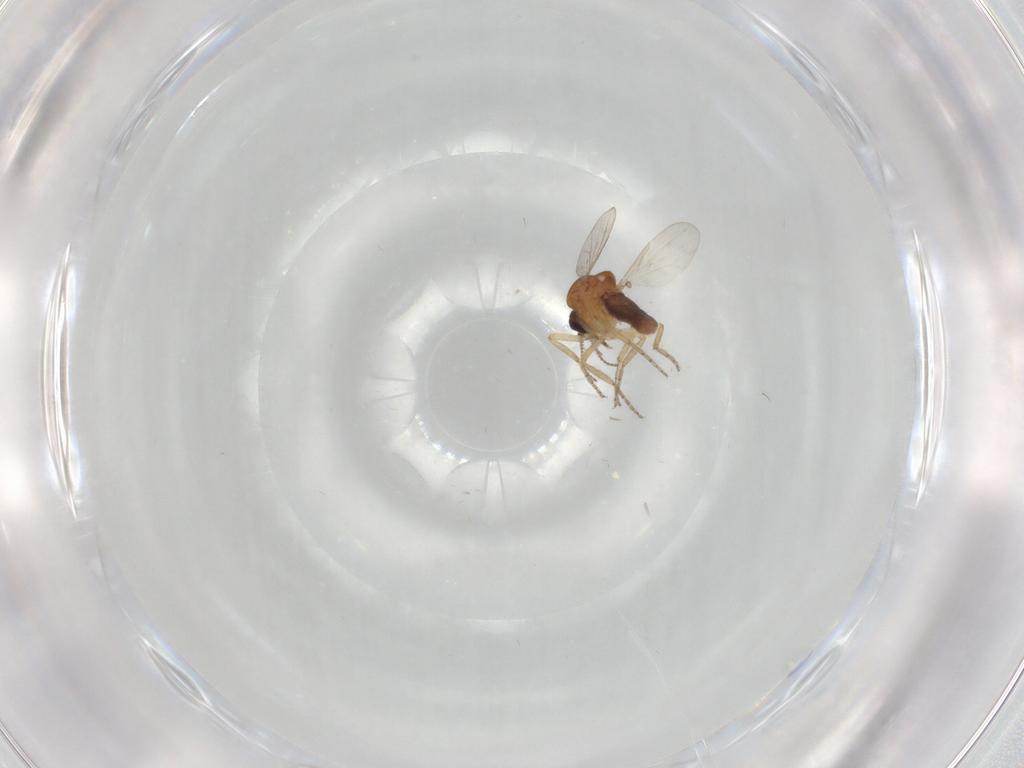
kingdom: Animalia
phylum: Arthropoda
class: Insecta
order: Diptera
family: Ceratopogonidae
